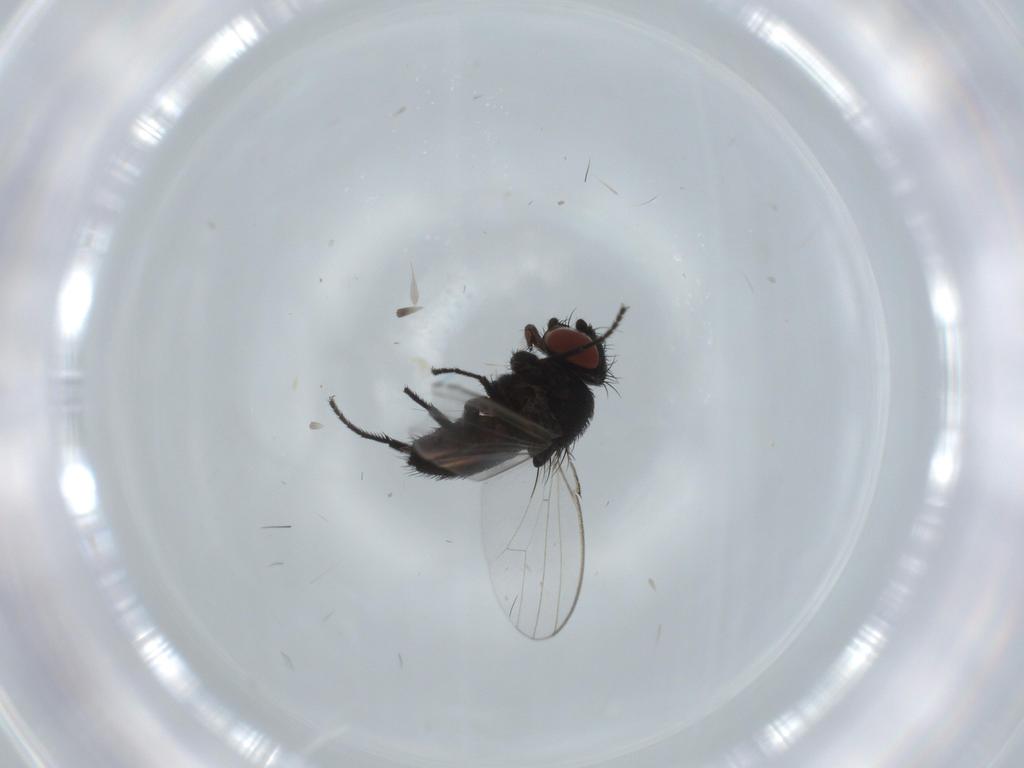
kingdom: Animalia
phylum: Arthropoda
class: Insecta
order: Diptera
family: Milichiidae
